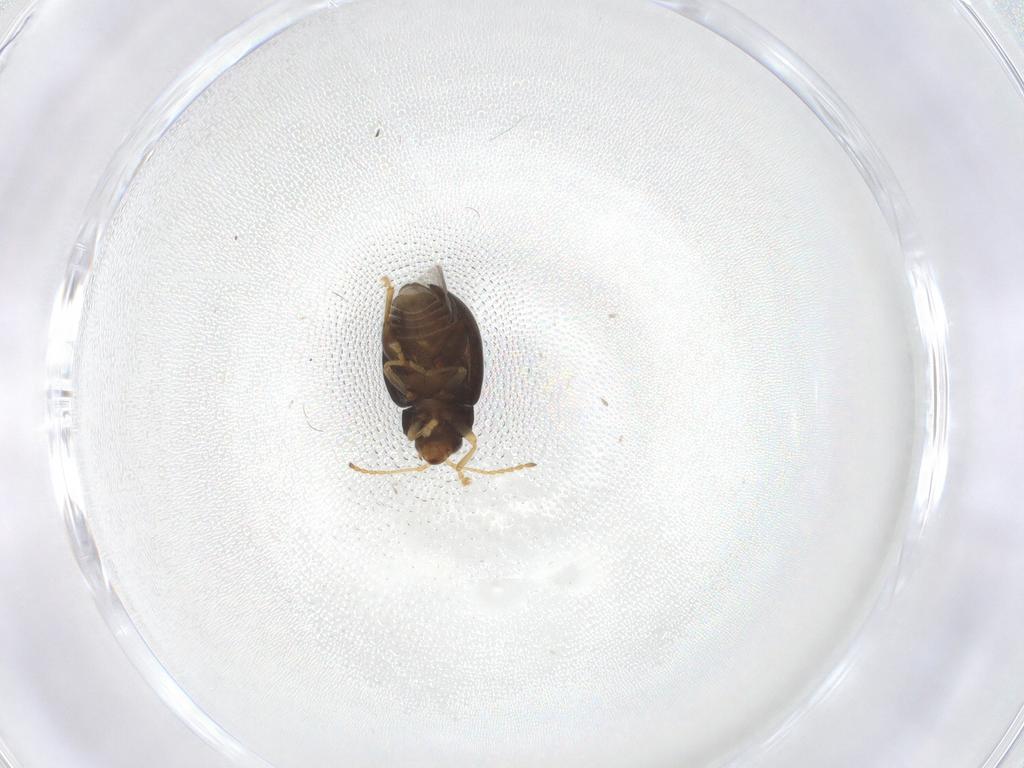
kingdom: Animalia
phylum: Arthropoda
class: Insecta
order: Coleoptera
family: Chrysomelidae
